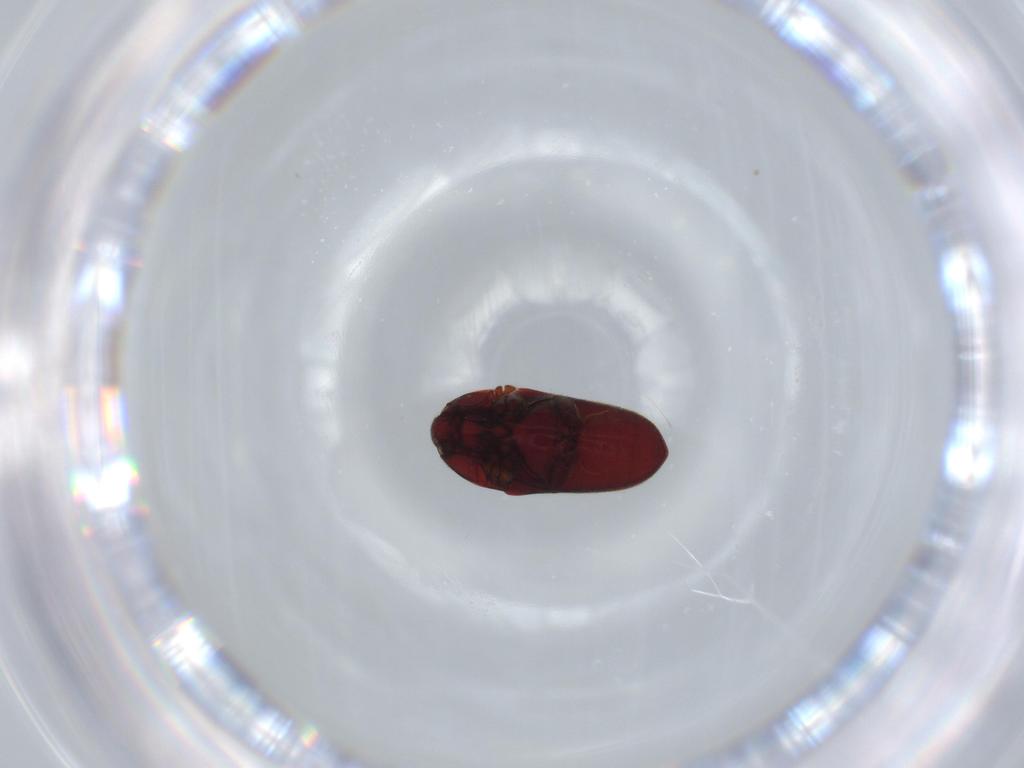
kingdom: Animalia
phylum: Arthropoda
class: Insecta
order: Coleoptera
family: Throscidae
